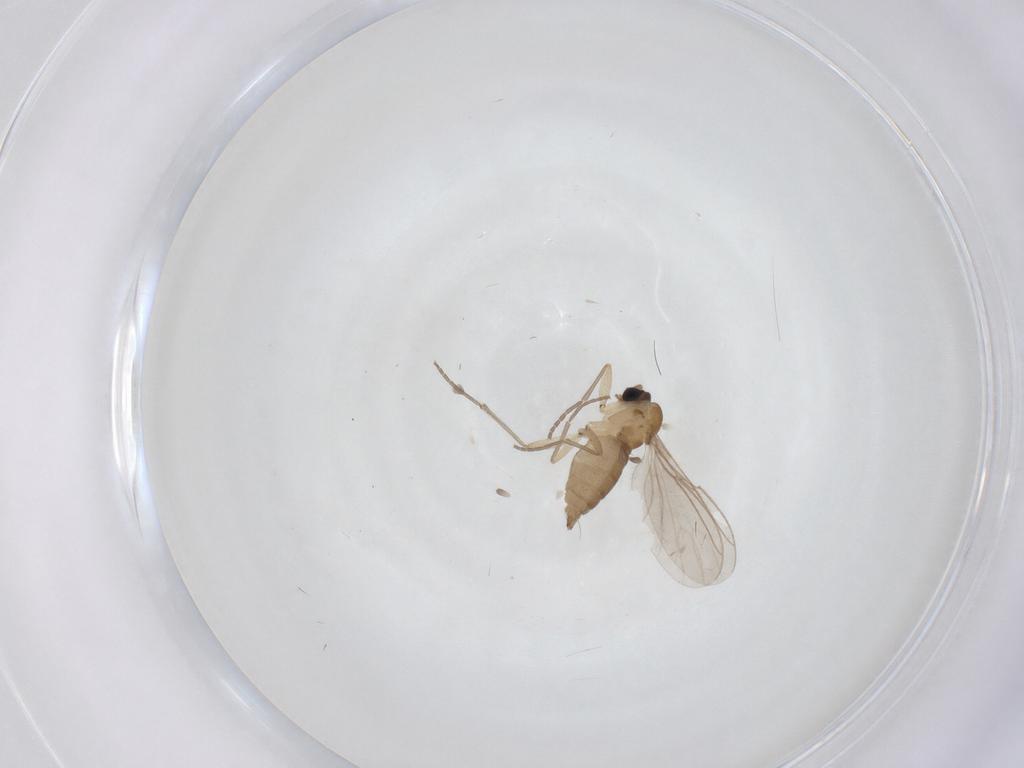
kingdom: Animalia
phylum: Arthropoda
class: Insecta
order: Diptera
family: Sciaridae
